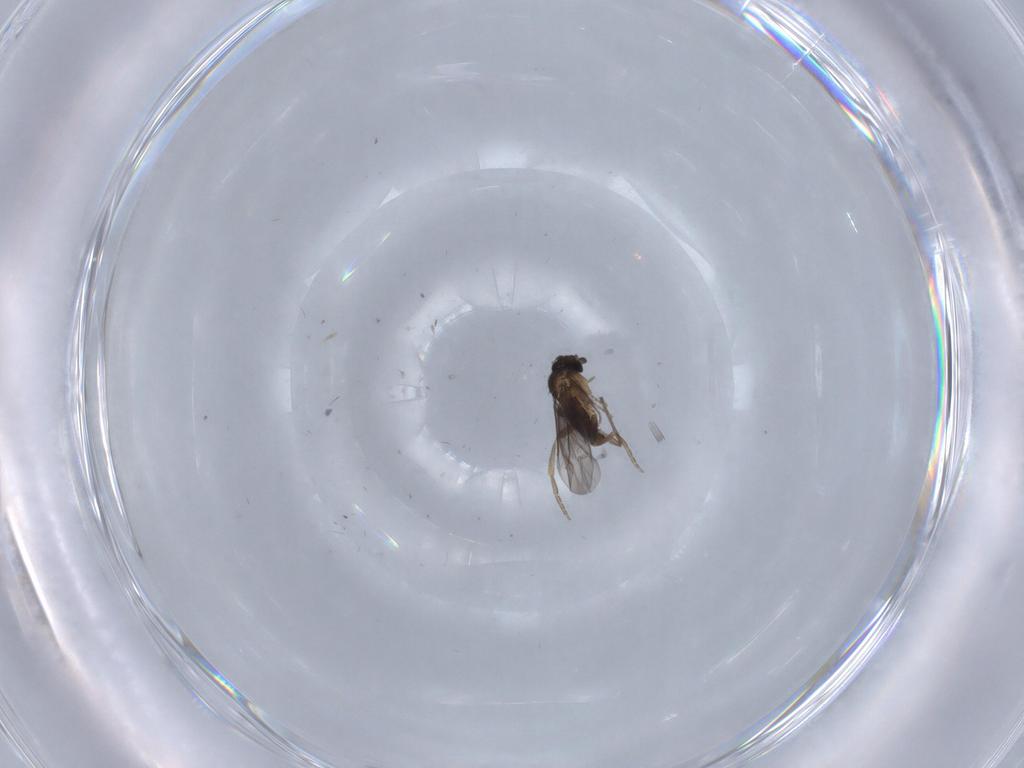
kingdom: Animalia
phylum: Arthropoda
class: Insecta
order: Diptera
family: Chironomidae
